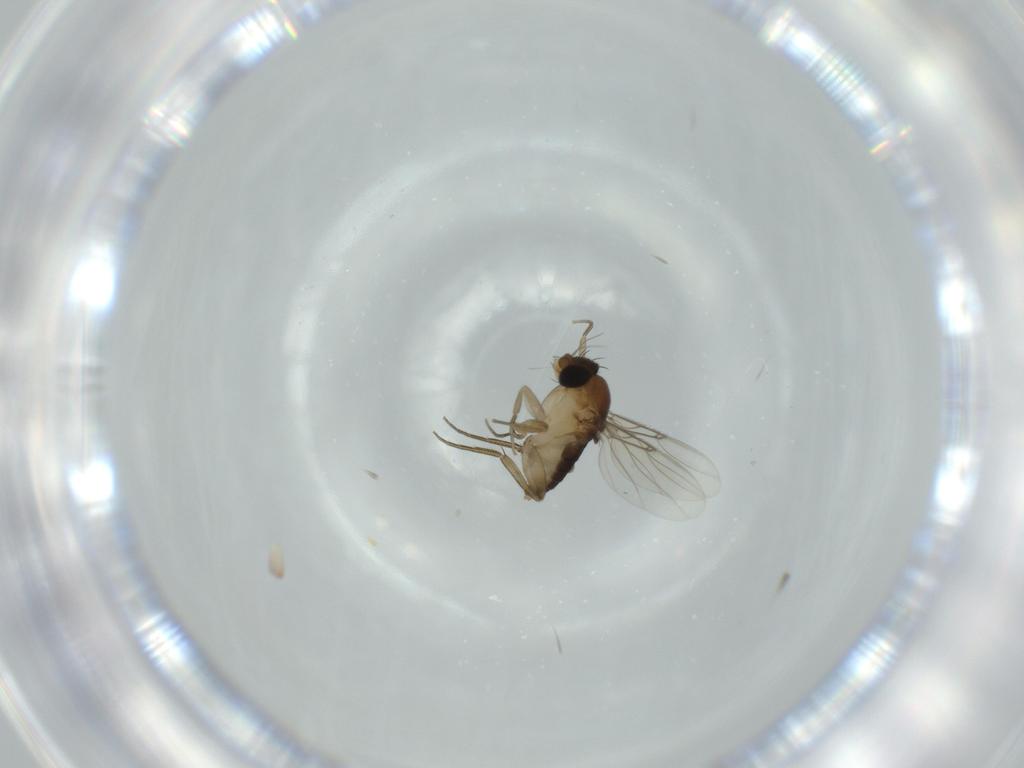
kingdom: Animalia
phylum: Arthropoda
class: Insecta
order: Diptera
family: Phoridae
